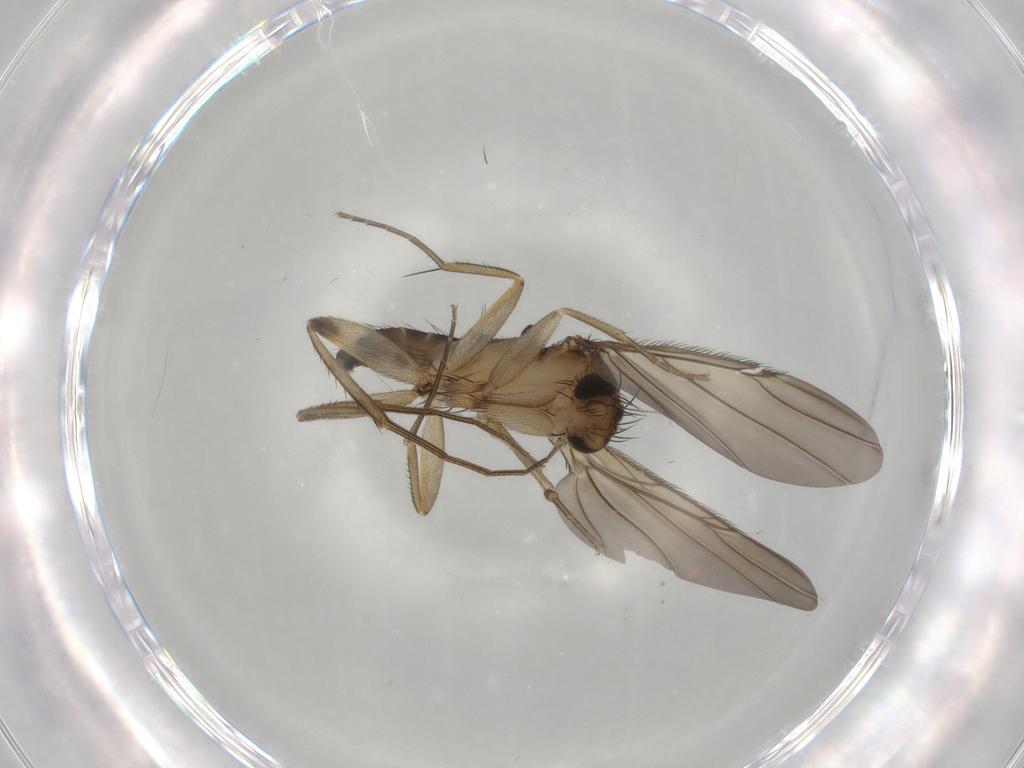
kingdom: Animalia
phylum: Arthropoda
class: Insecta
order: Diptera
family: Phoridae
